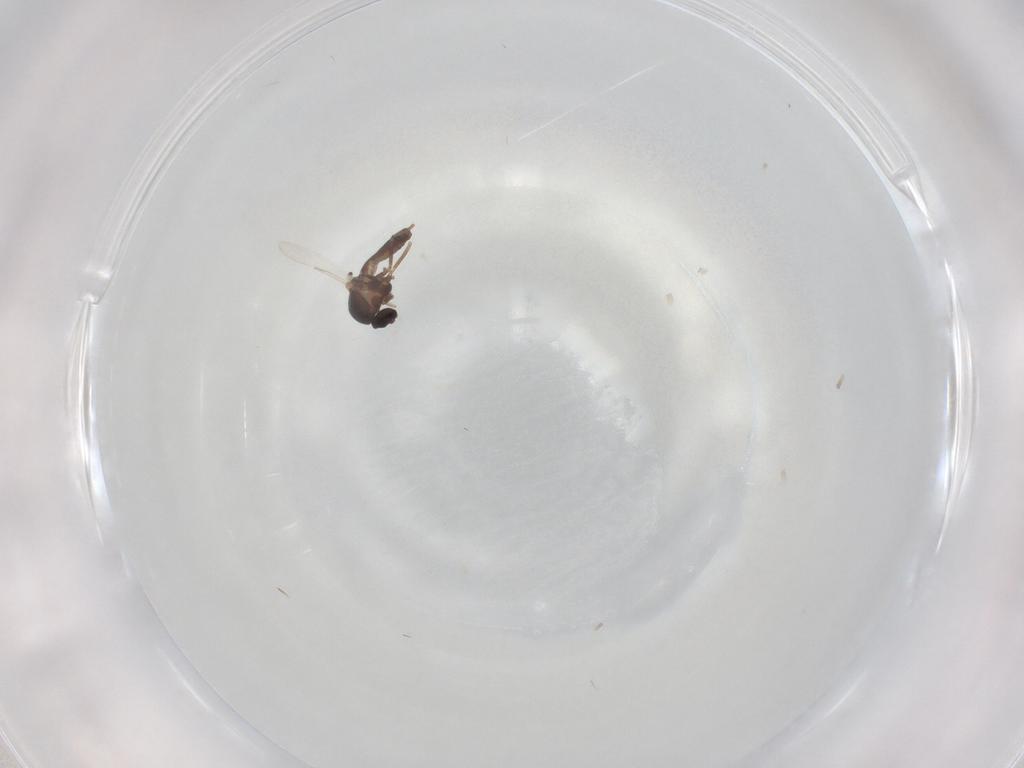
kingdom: Animalia
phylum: Arthropoda
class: Insecta
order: Diptera
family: Ceratopogonidae
